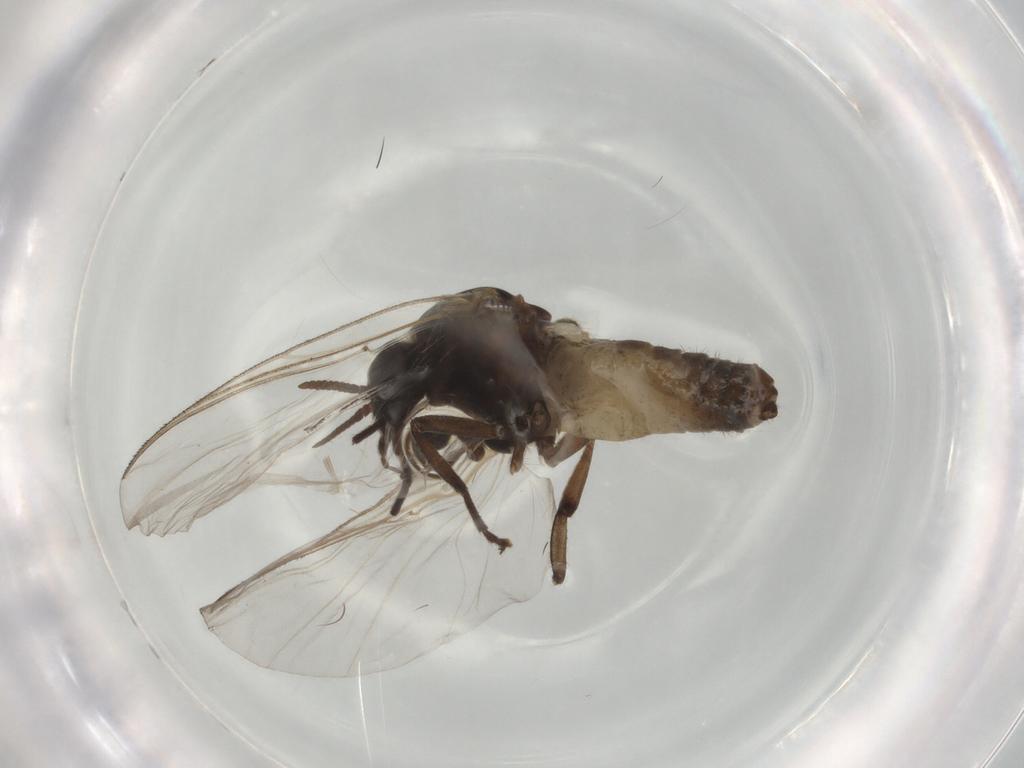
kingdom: Animalia
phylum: Arthropoda
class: Insecta
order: Diptera
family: Simuliidae
